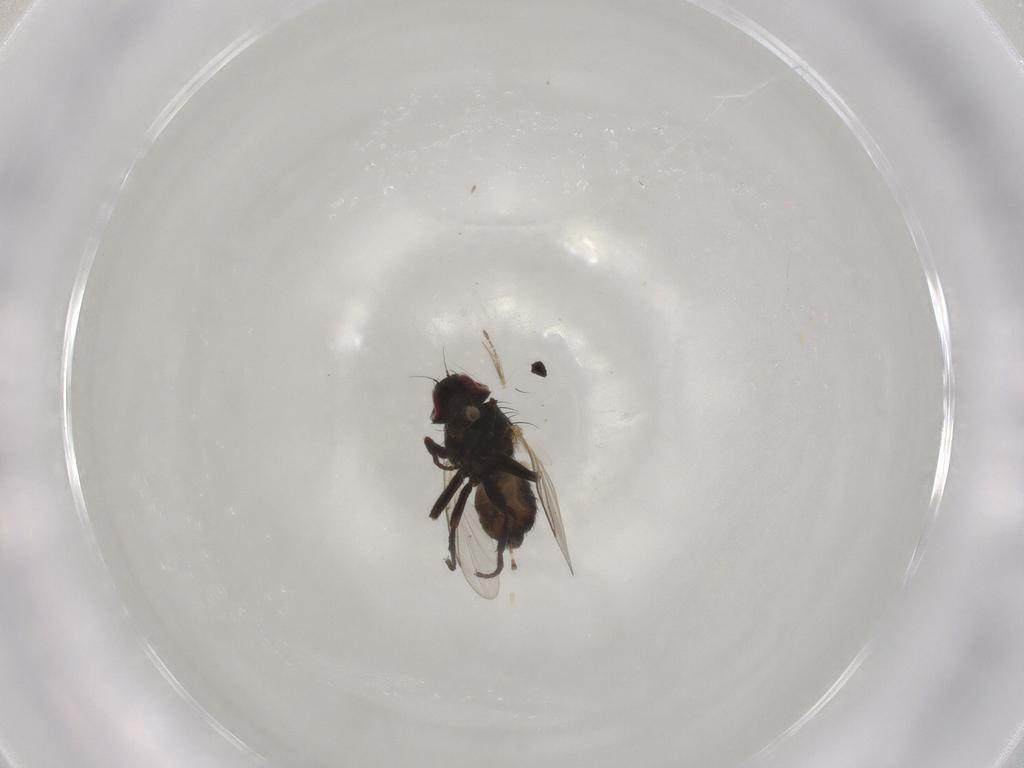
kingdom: Animalia
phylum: Arthropoda
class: Insecta
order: Diptera
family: Agromyzidae
